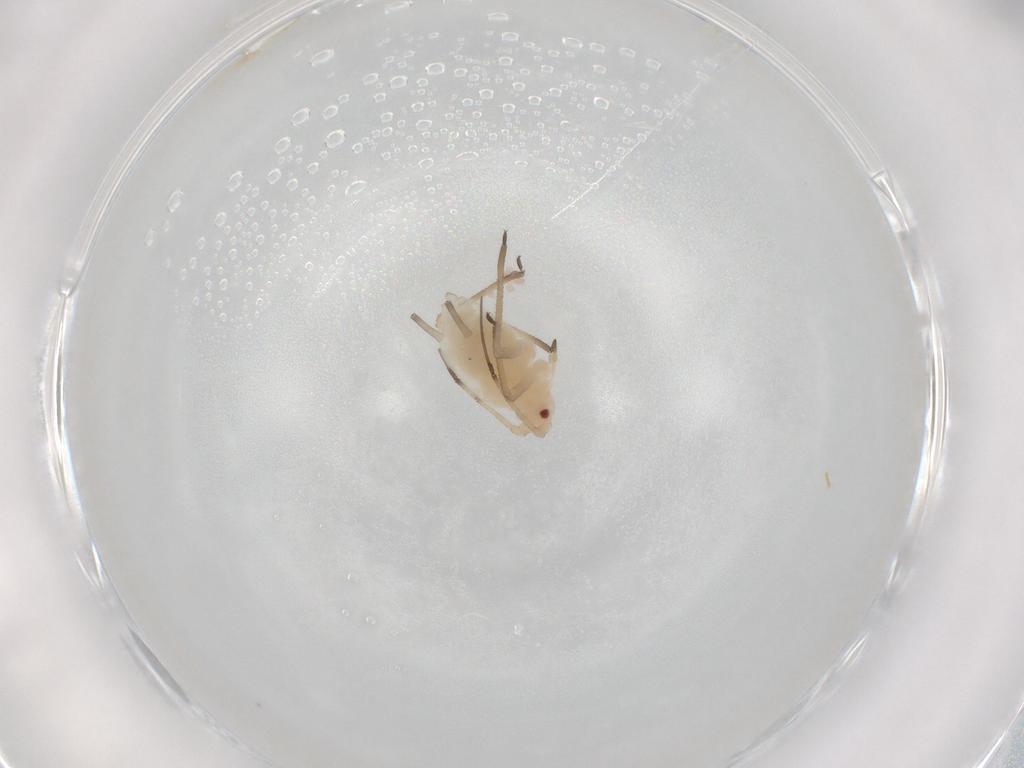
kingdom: Animalia
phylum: Arthropoda
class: Insecta
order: Hemiptera
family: Aphididae
